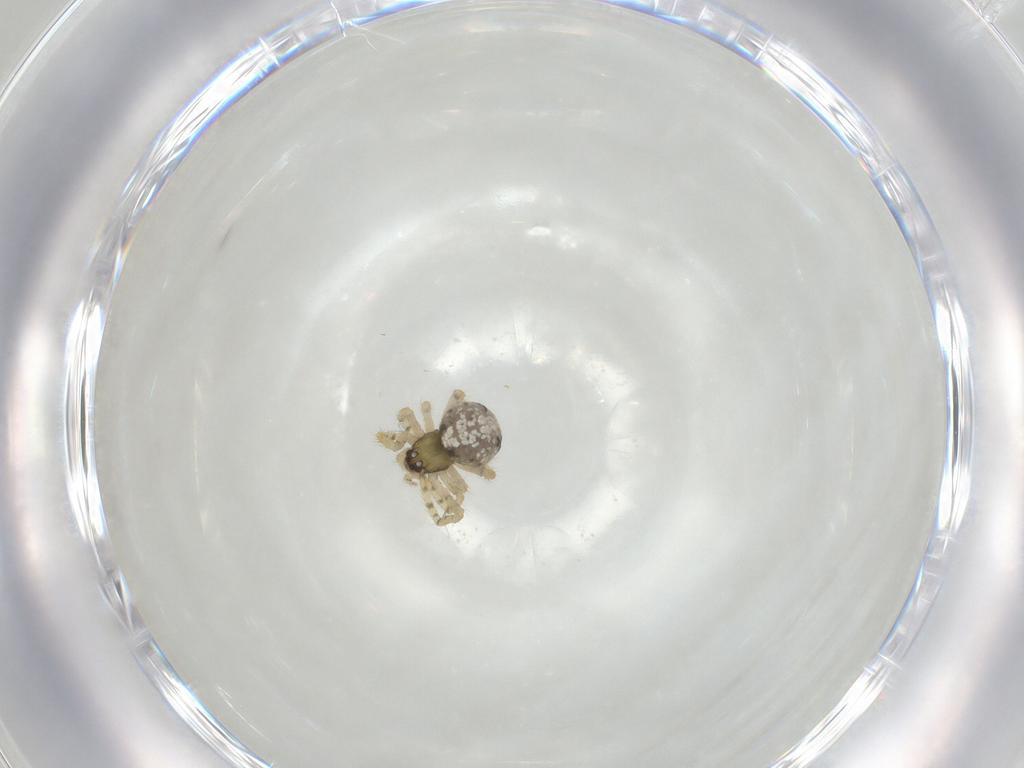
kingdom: Animalia
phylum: Arthropoda
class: Arachnida
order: Araneae
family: Theridiidae
